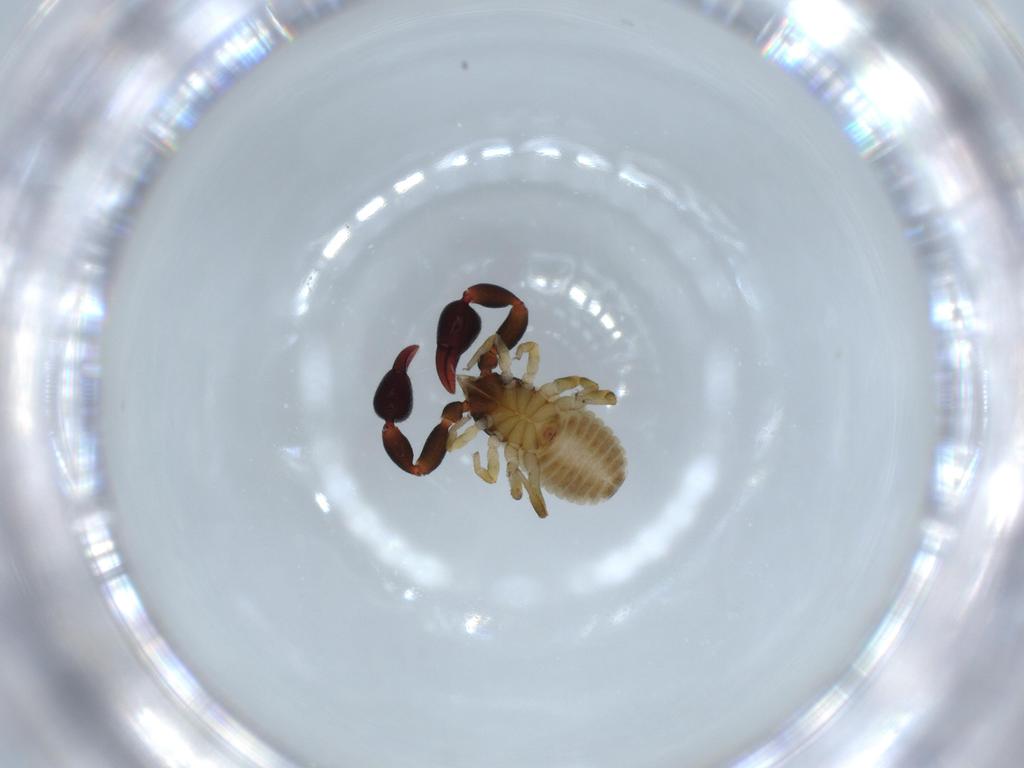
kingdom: Animalia
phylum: Arthropoda
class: Arachnida
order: Pseudoscorpiones
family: Chernetidae
